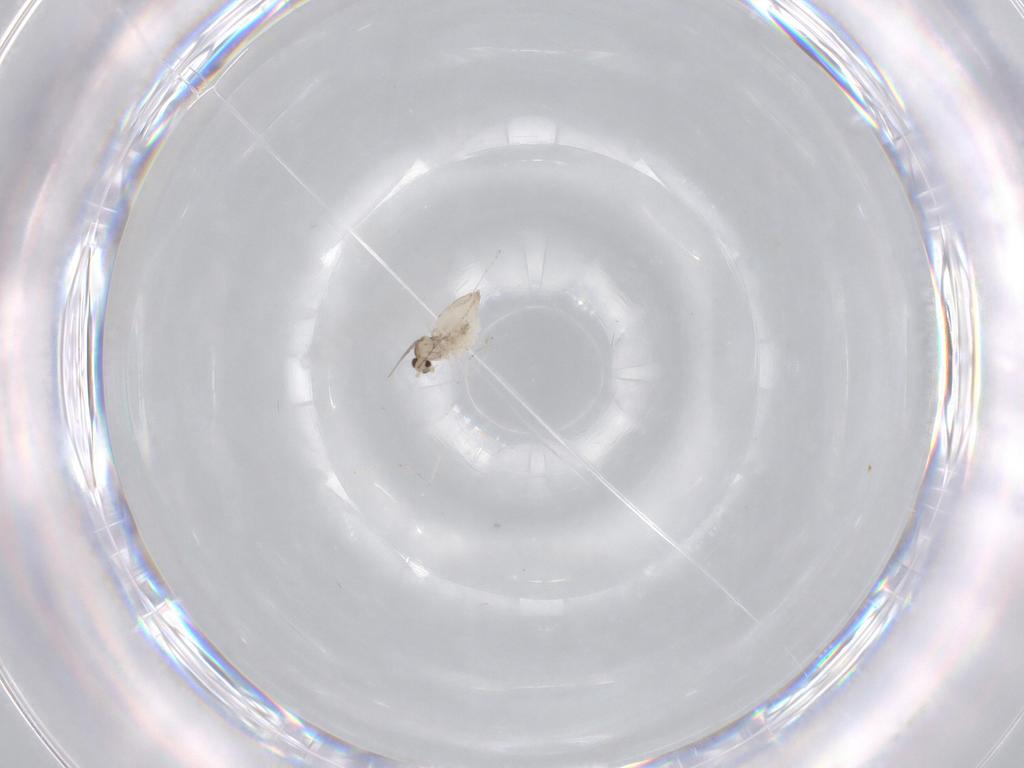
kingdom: Animalia
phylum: Arthropoda
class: Insecta
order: Diptera
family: Cecidomyiidae
